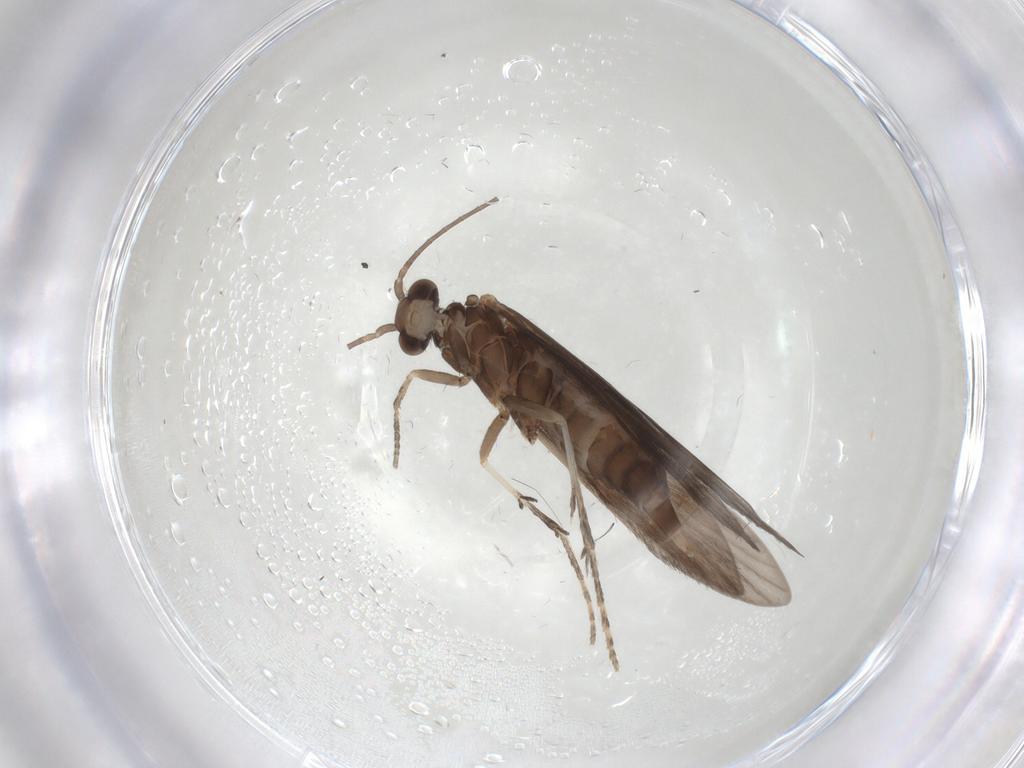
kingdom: Animalia
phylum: Arthropoda
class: Insecta
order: Trichoptera
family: Xiphocentronidae
